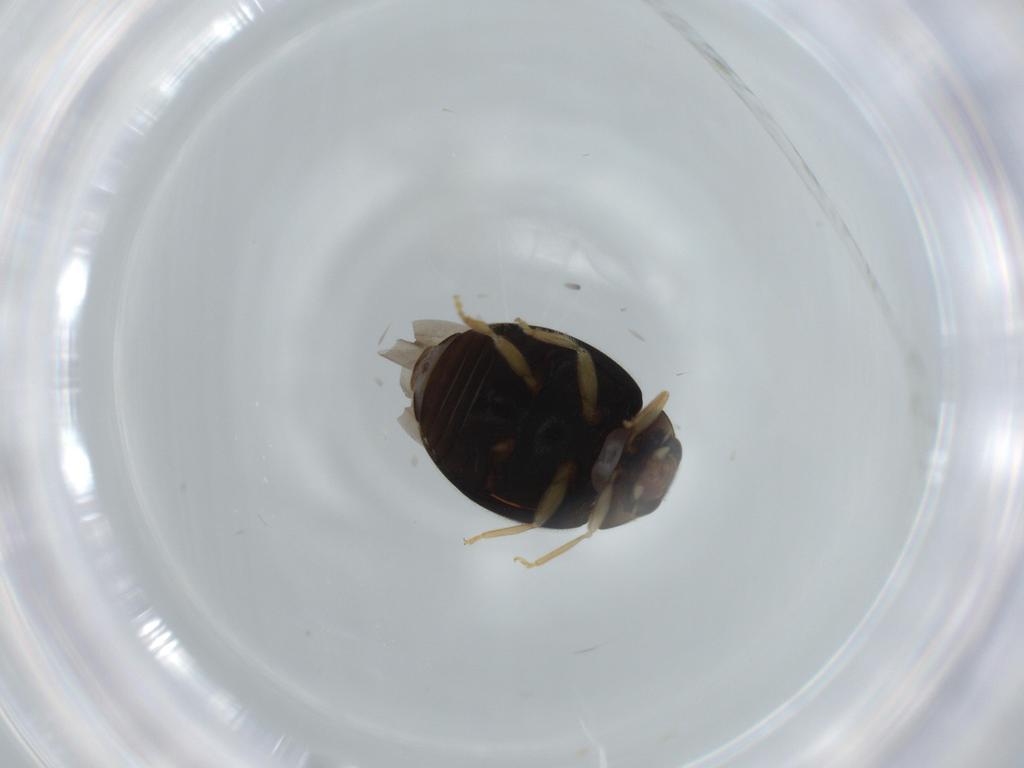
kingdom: Animalia
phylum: Arthropoda
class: Insecta
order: Coleoptera
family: Coccinellidae
